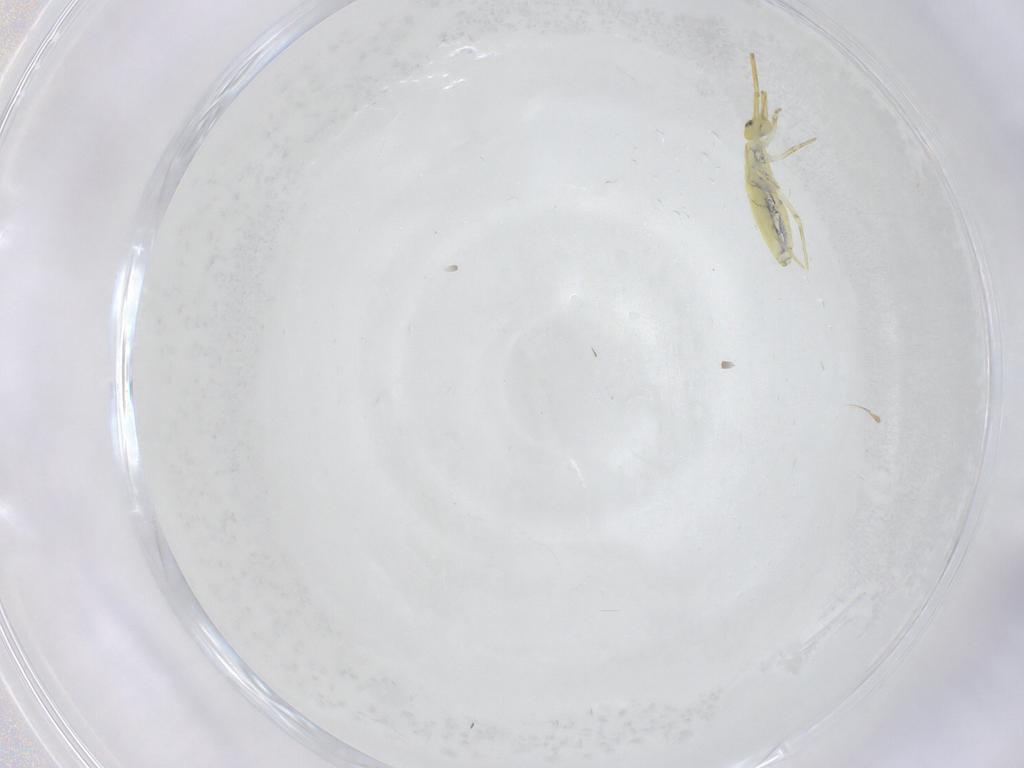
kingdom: Animalia
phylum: Arthropoda
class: Collembola
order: Entomobryomorpha
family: Paronellidae
